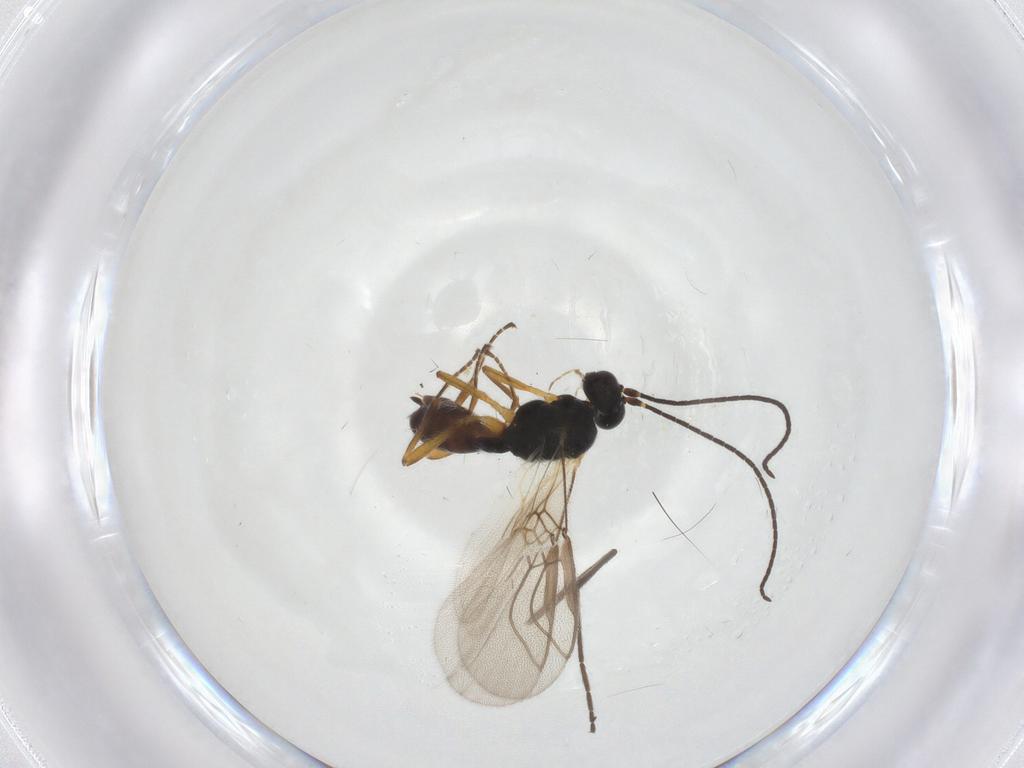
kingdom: Animalia
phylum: Arthropoda
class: Insecta
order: Hymenoptera
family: Braconidae
